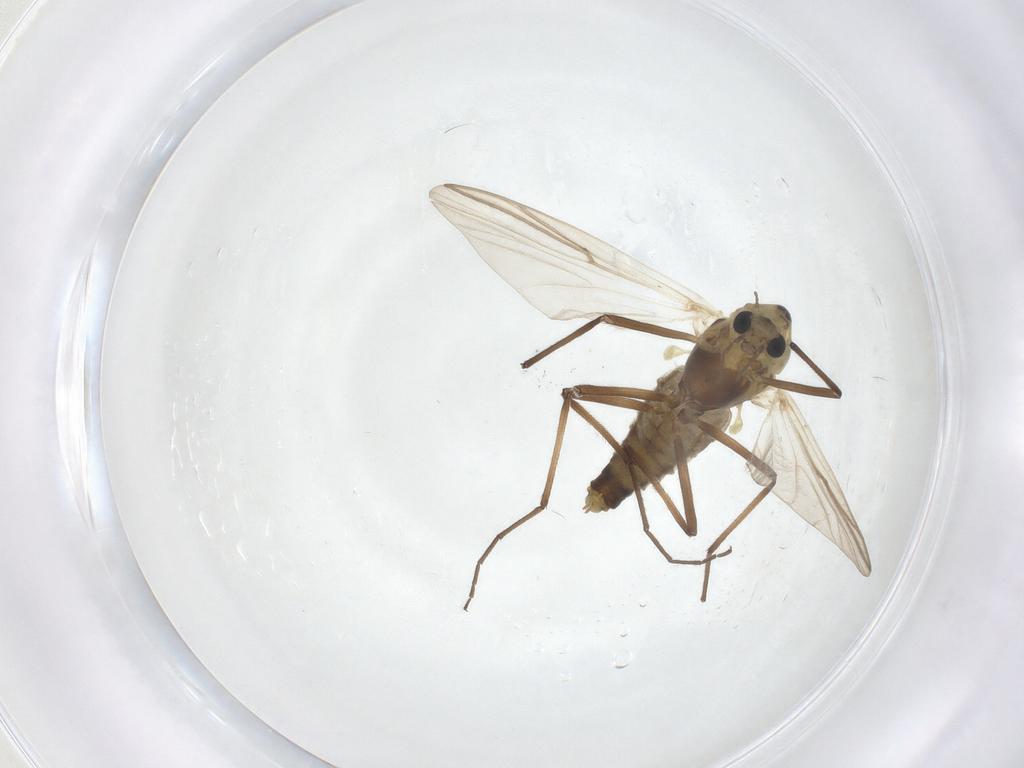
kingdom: Animalia
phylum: Arthropoda
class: Insecta
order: Diptera
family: Chironomidae
